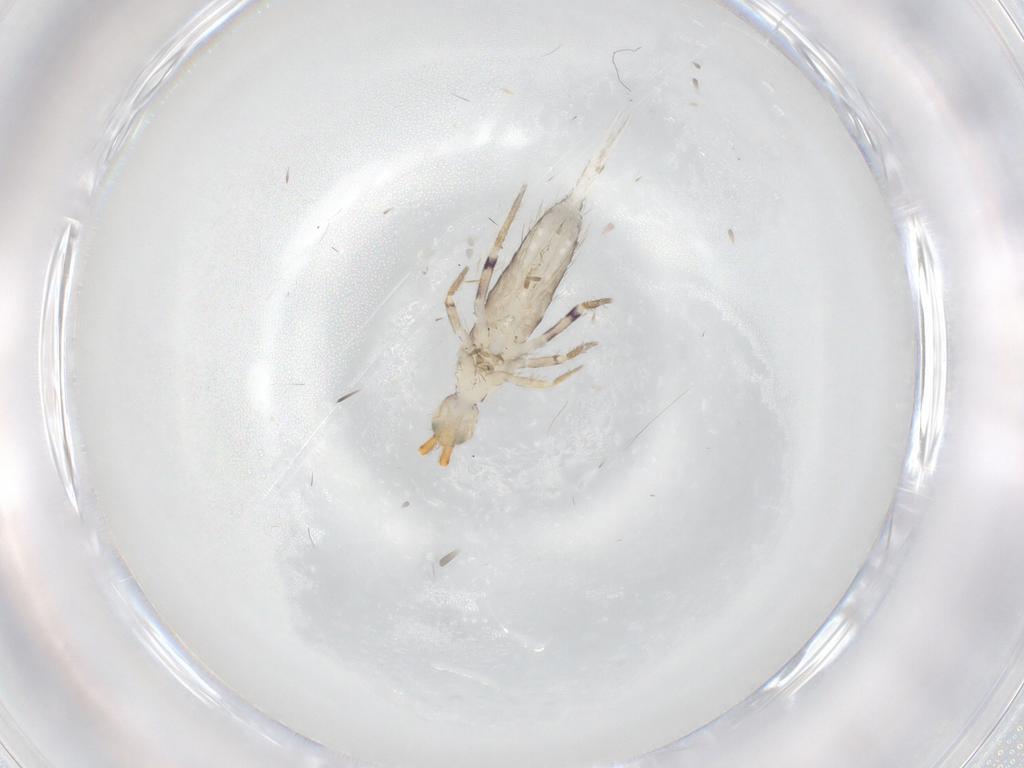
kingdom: Animalia
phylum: Arthropoda
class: Collembola
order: Entomobryomorpha
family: Entomobryidae
